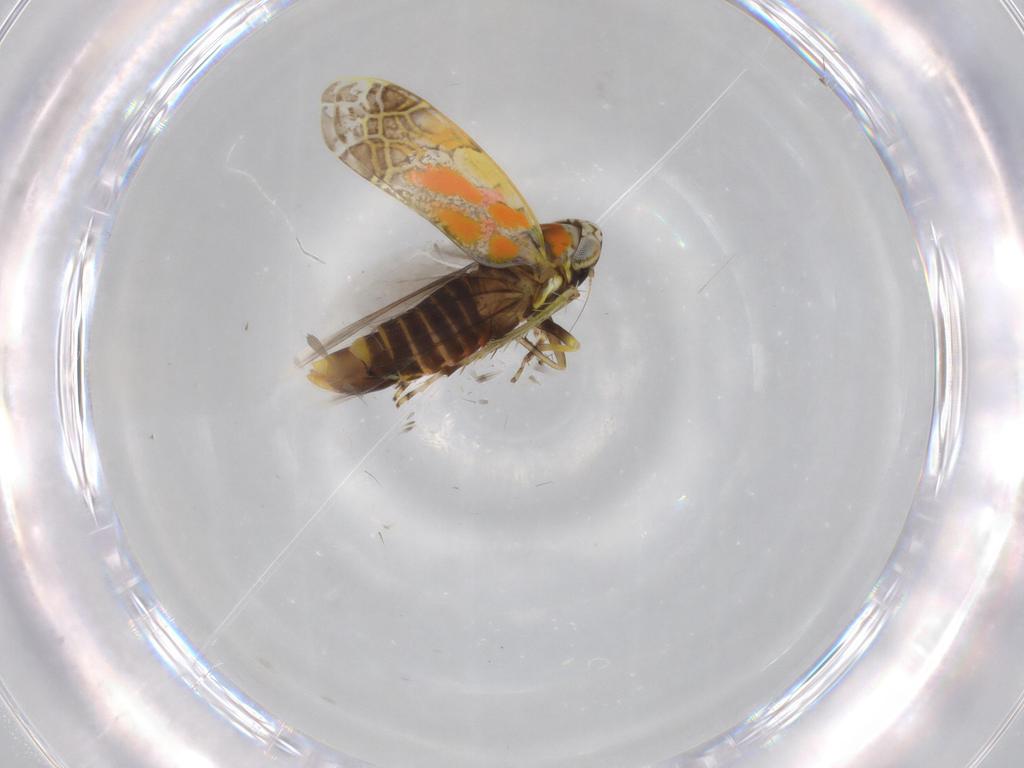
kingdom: Animalia
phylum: Arthropoda
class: Insecta
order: Hemiptera
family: Cicadellidae
